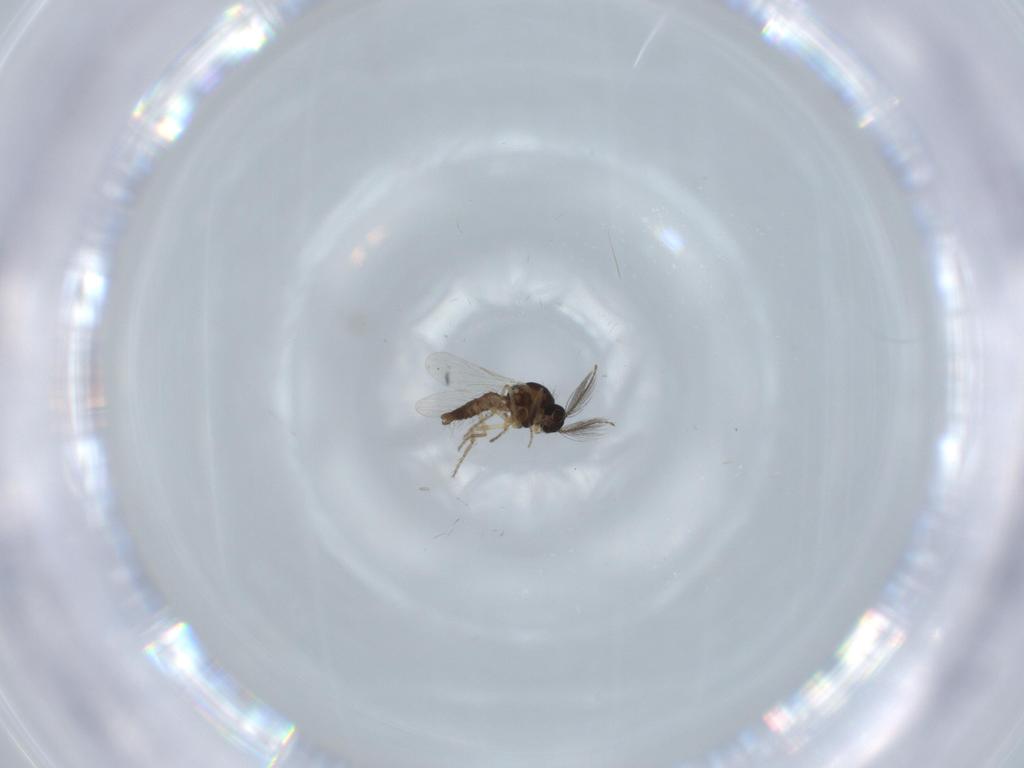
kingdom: Animalia
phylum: Arthropoda
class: Insecta
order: Diptera
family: Ceratopogonidae
